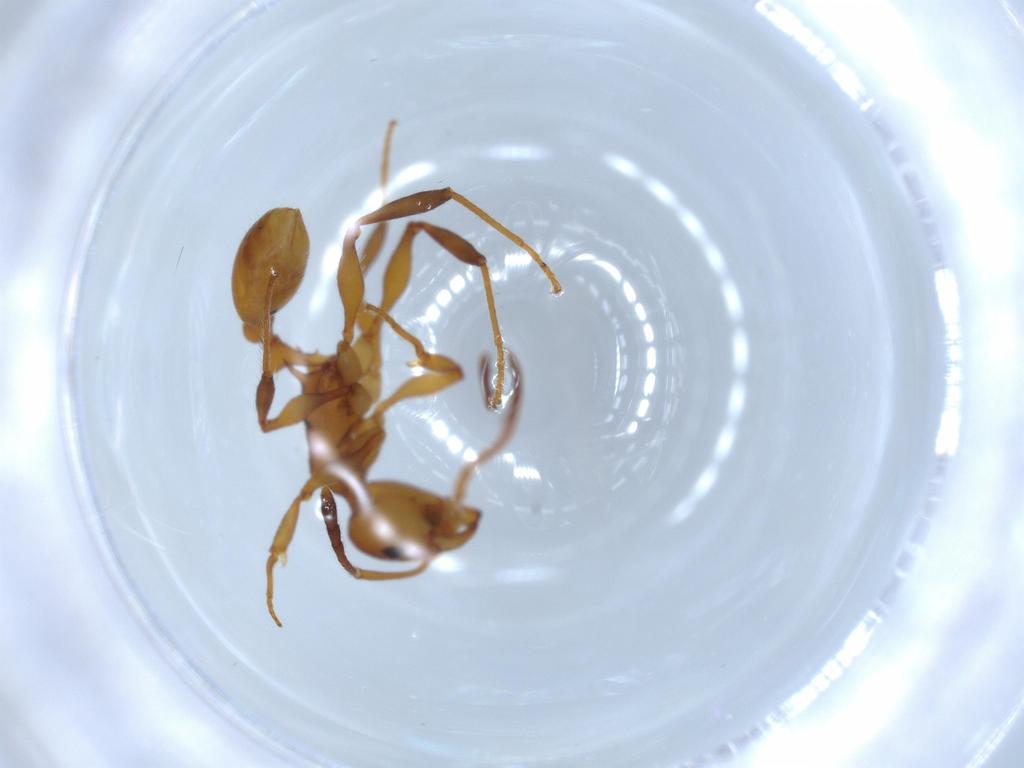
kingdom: Animalia
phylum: Arthropoda
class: Insecta
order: Hymenoptera
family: Formicidae
